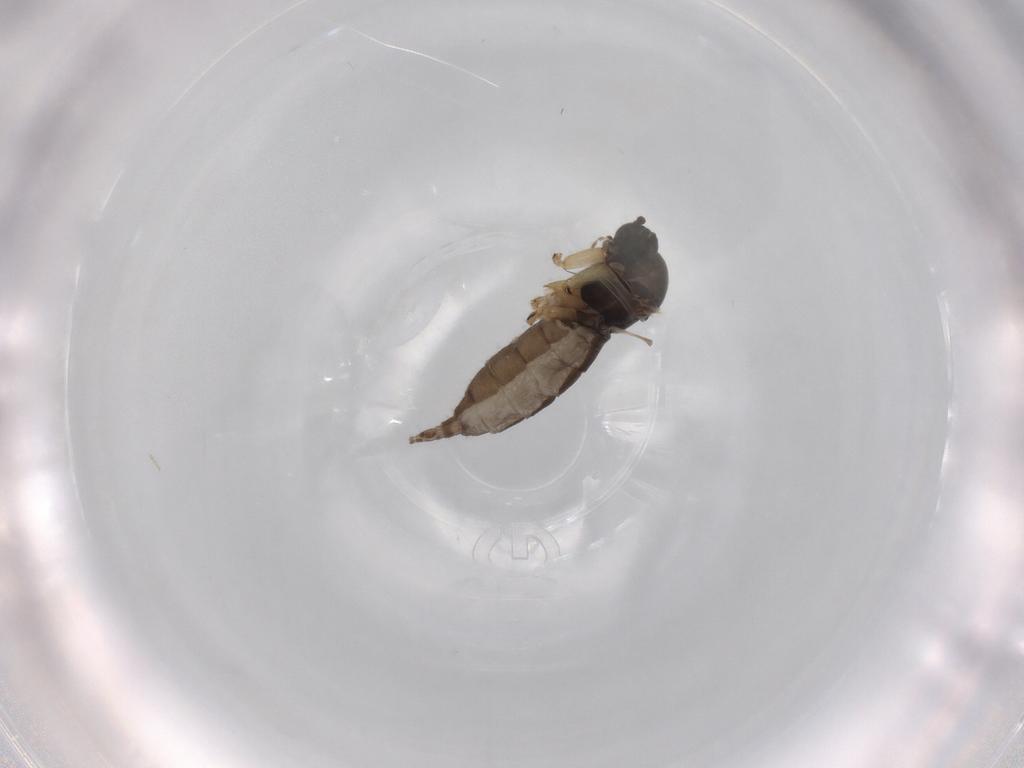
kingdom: Animalia
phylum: Arthropoda
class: Insecta
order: Diptera
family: Sciaridae
